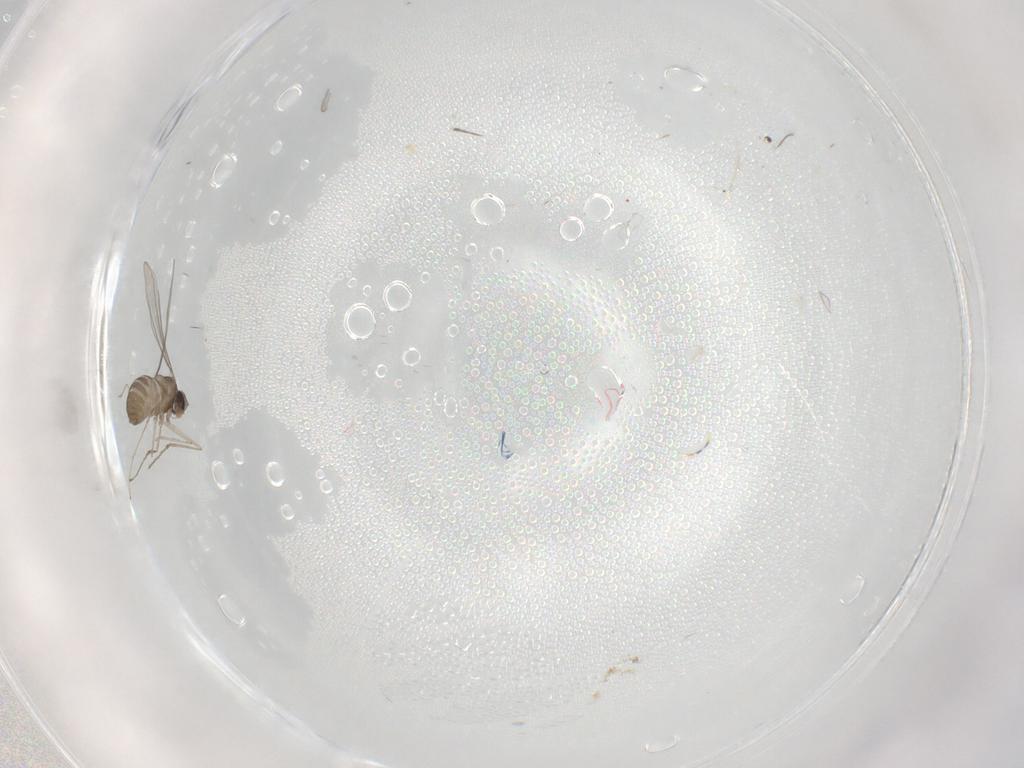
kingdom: Animalia
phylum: Arthropoda
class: Insecta
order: Diptera
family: Cecidomyiidae
